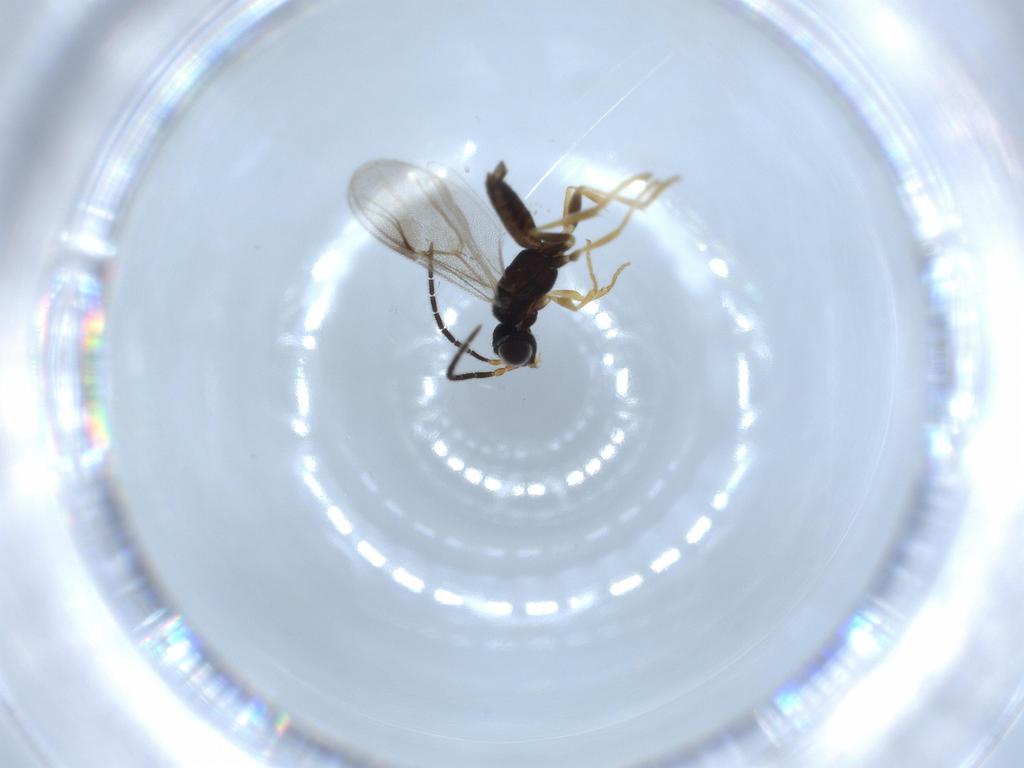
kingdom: Animalia
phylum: Arthropoda
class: Insecta
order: Hymenoptera
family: Dryinidae
